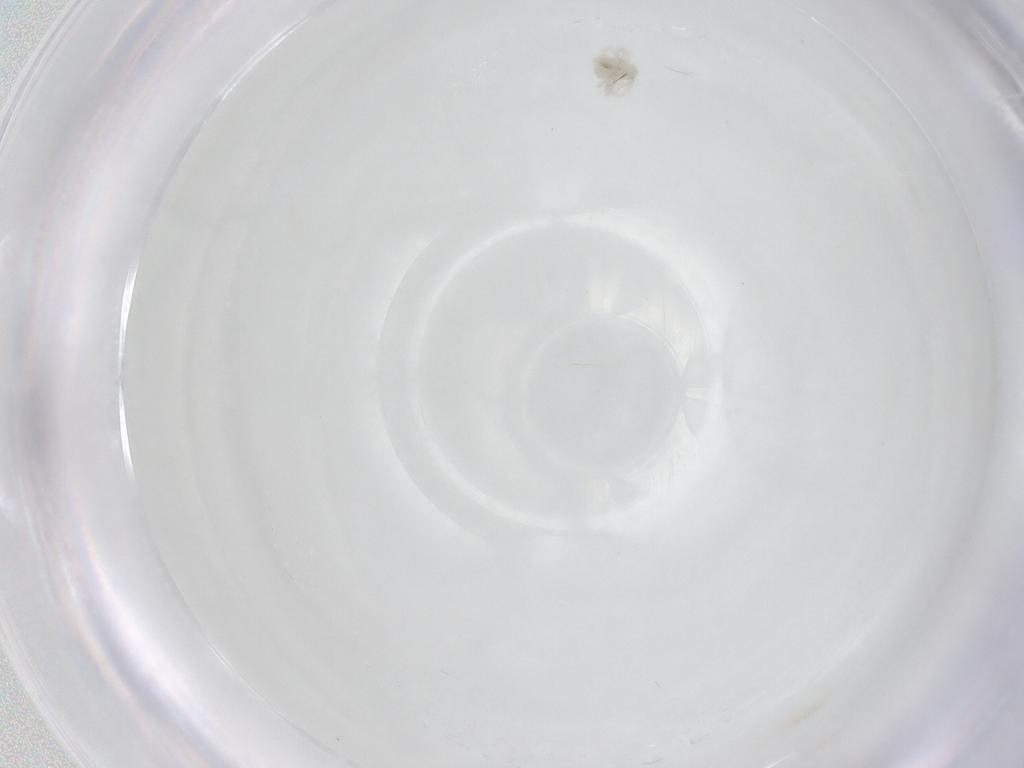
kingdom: Animalia
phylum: Arthropoda
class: Arachnida
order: Trombidiformes
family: Anystidae
